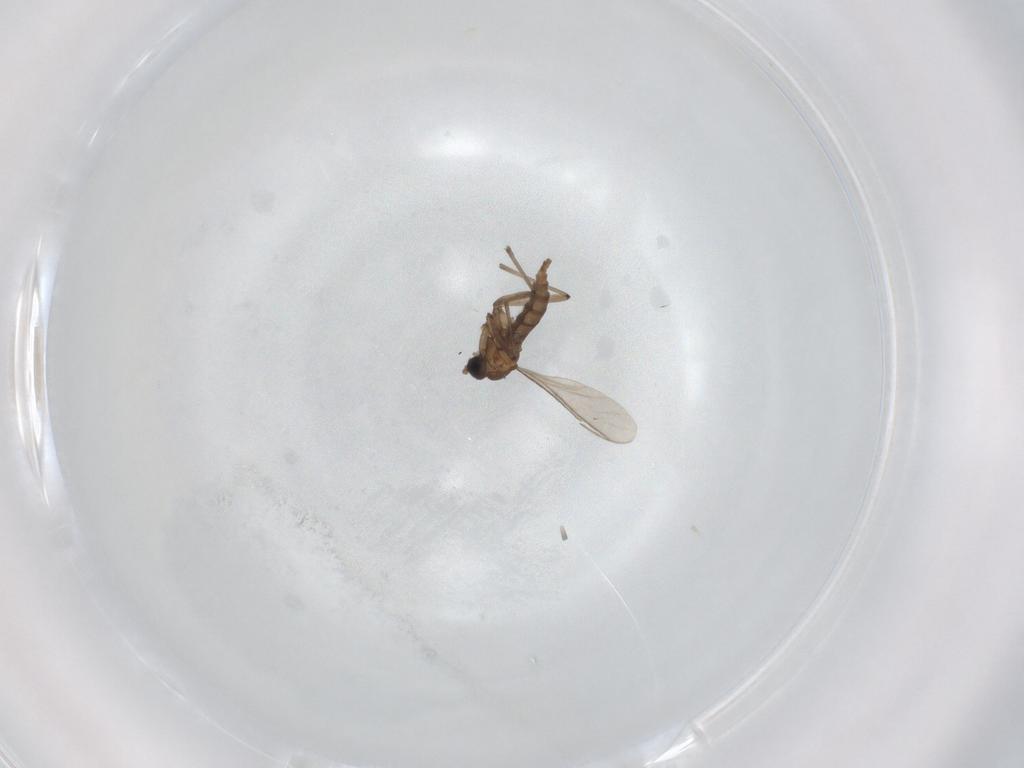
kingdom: Animalia
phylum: Arthropoda
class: Insecta
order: Diptera
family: Sciaridae
